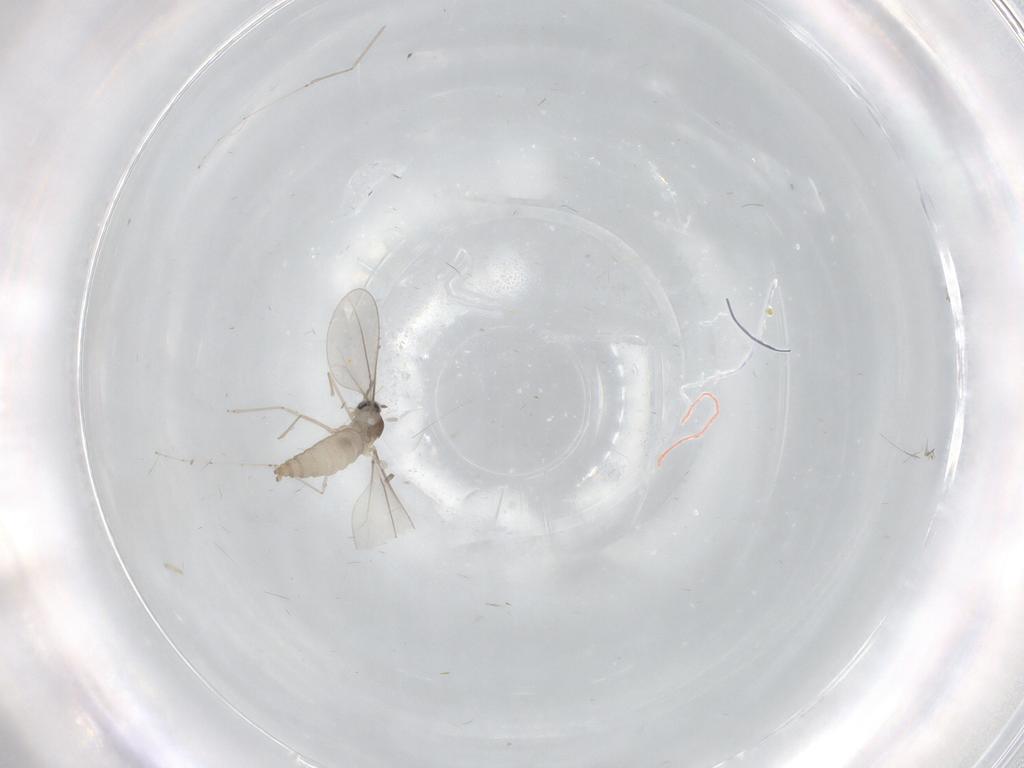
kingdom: Animalia
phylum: Arthropoda
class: Insecta
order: Diptera
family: Cecidomyiidae
